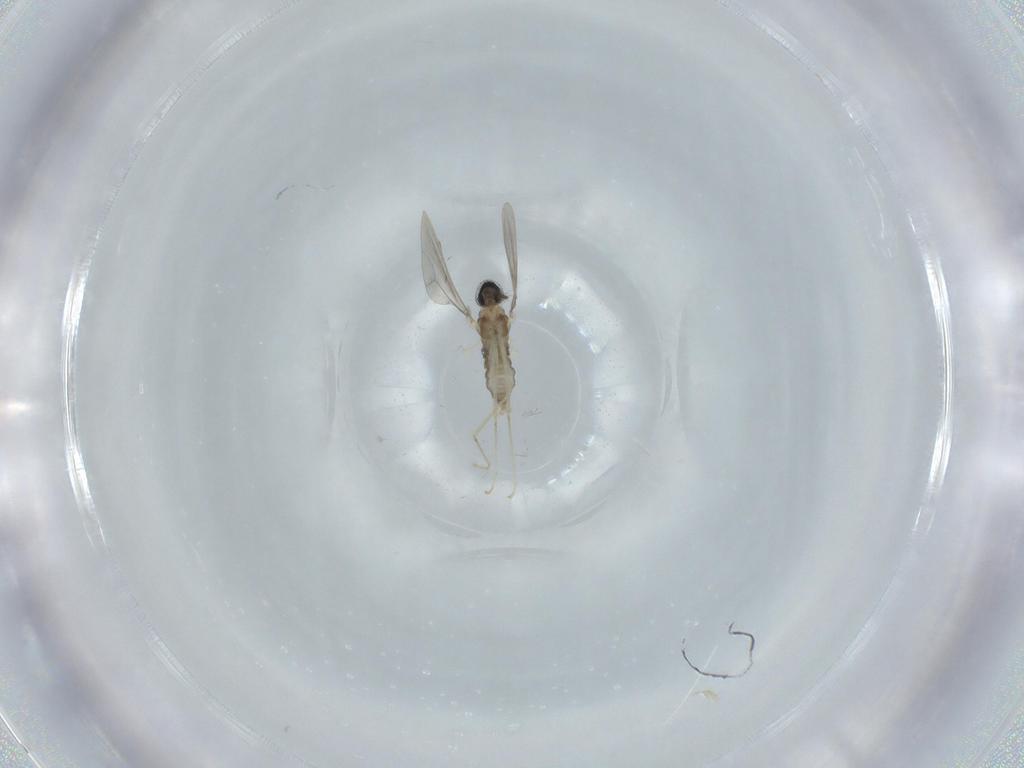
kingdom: Animalia
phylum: Arthropoda
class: Insecta
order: Diptera
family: Cecidomyiidae
